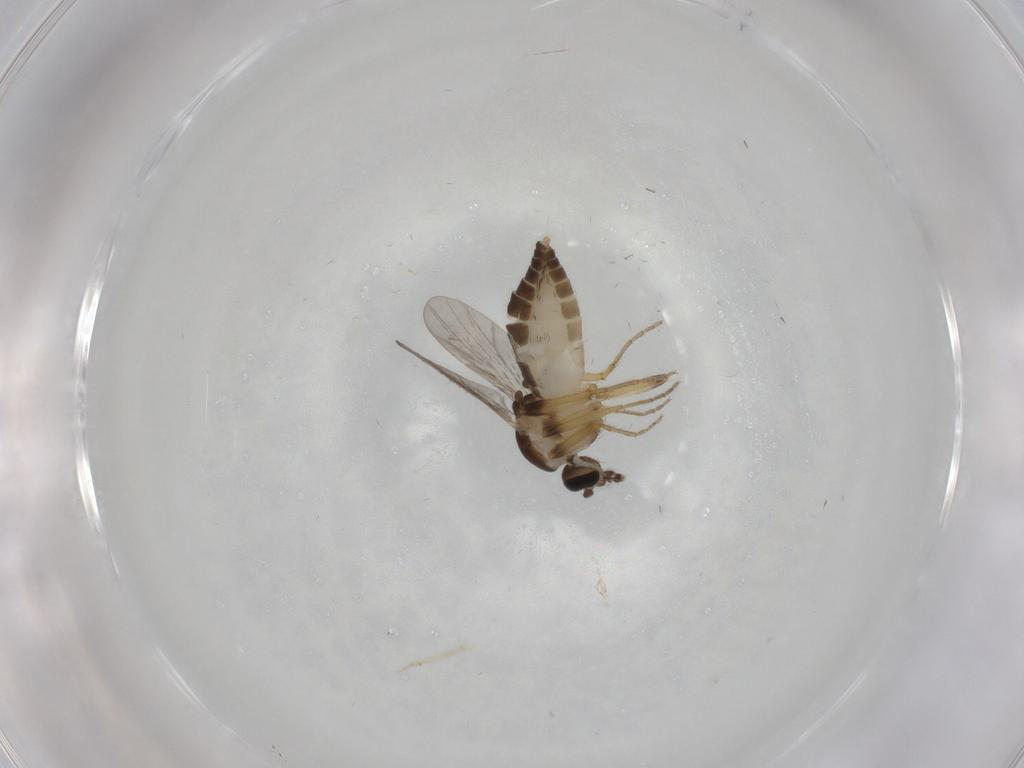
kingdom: Animalia
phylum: Arthropoda
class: Insecta
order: Diptera
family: Ceratopogonidae
